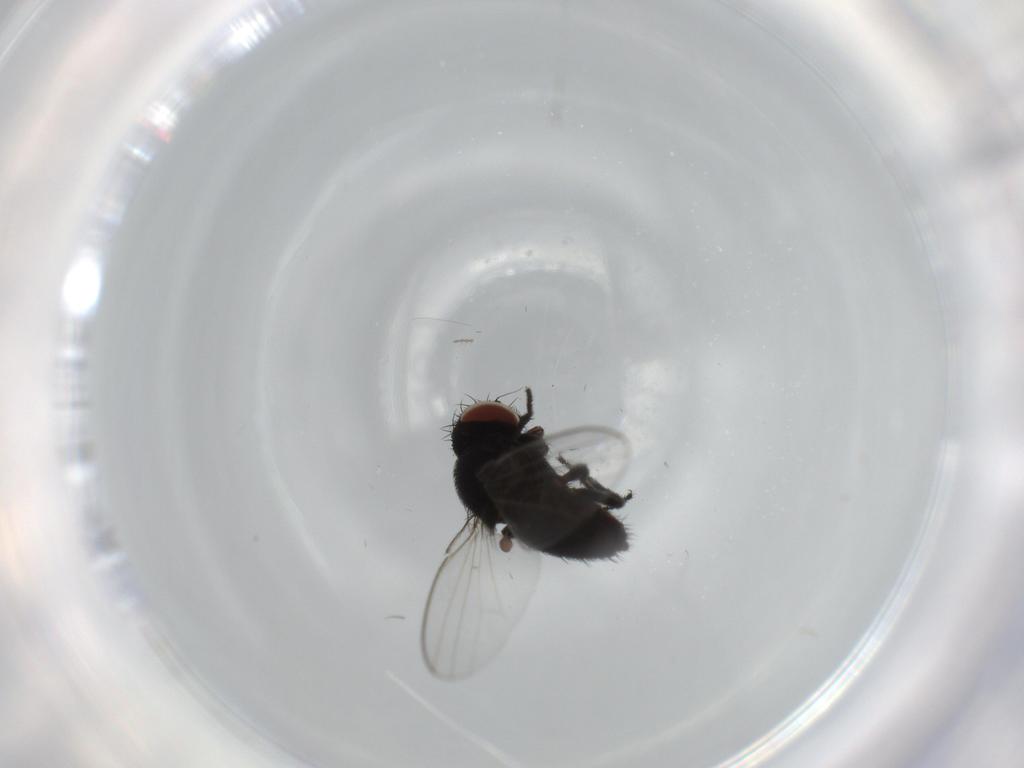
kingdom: Animalia
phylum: Arthropoda
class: Insecta
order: Diptera
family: Milichiidae
